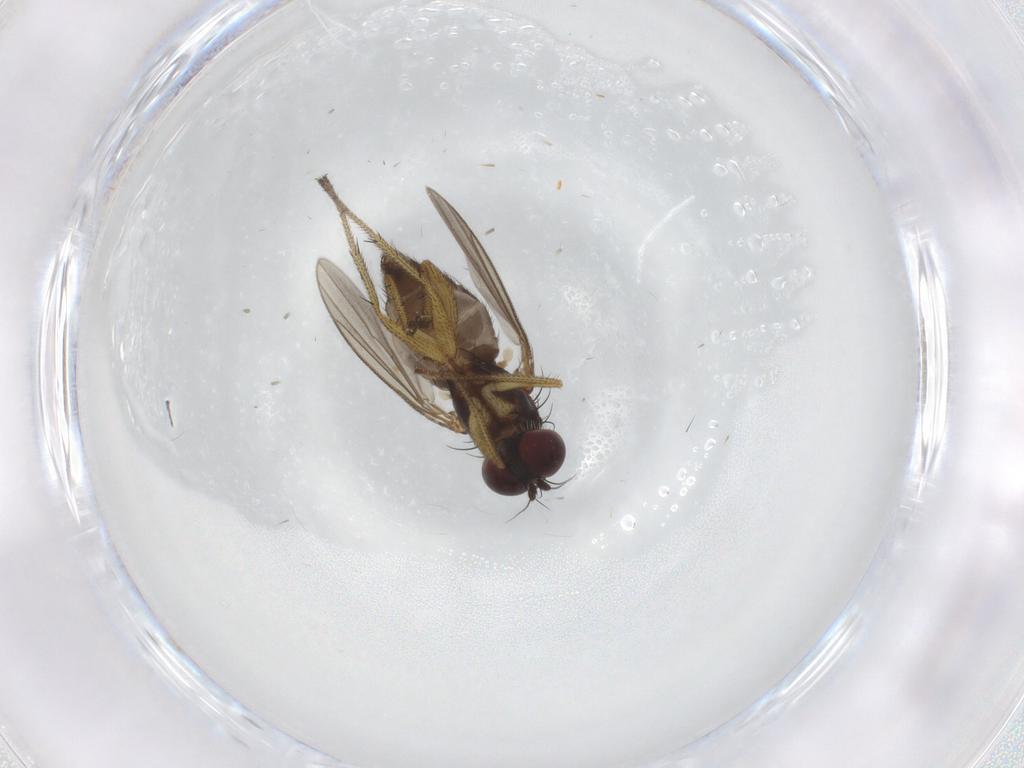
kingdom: Animalia
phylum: Arthropoda
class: Insecta
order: Diptera
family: Dolichopodidae
